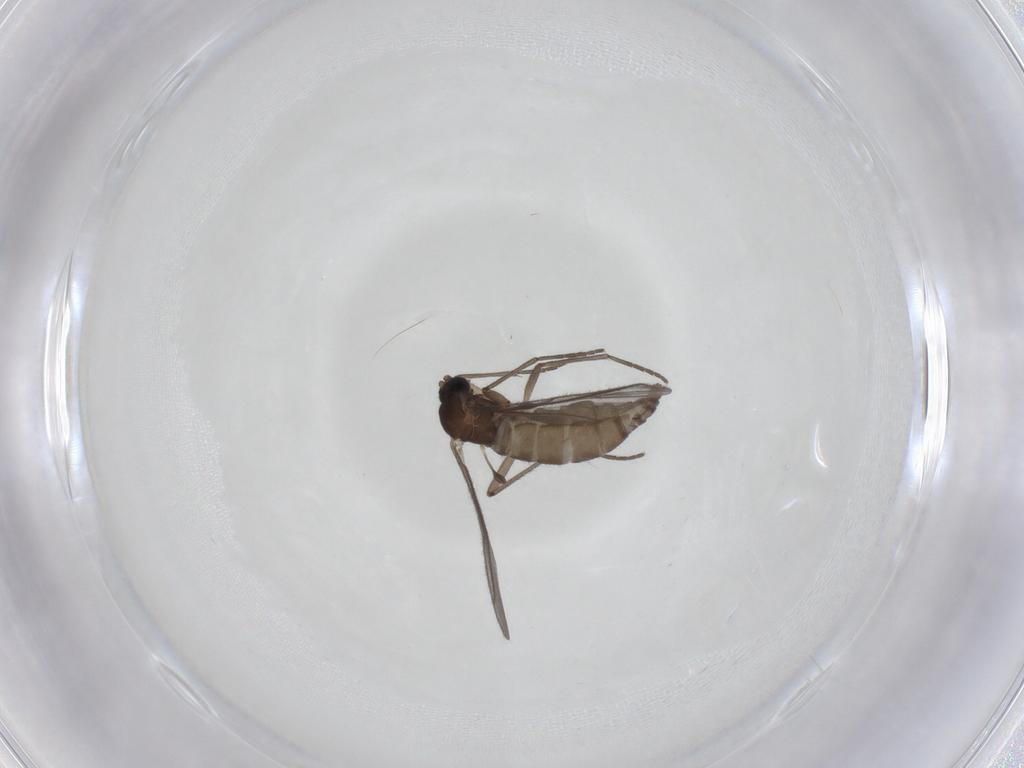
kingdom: Animalia
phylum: Arthropoda
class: Insecta
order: Diptera
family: Sciaridae
